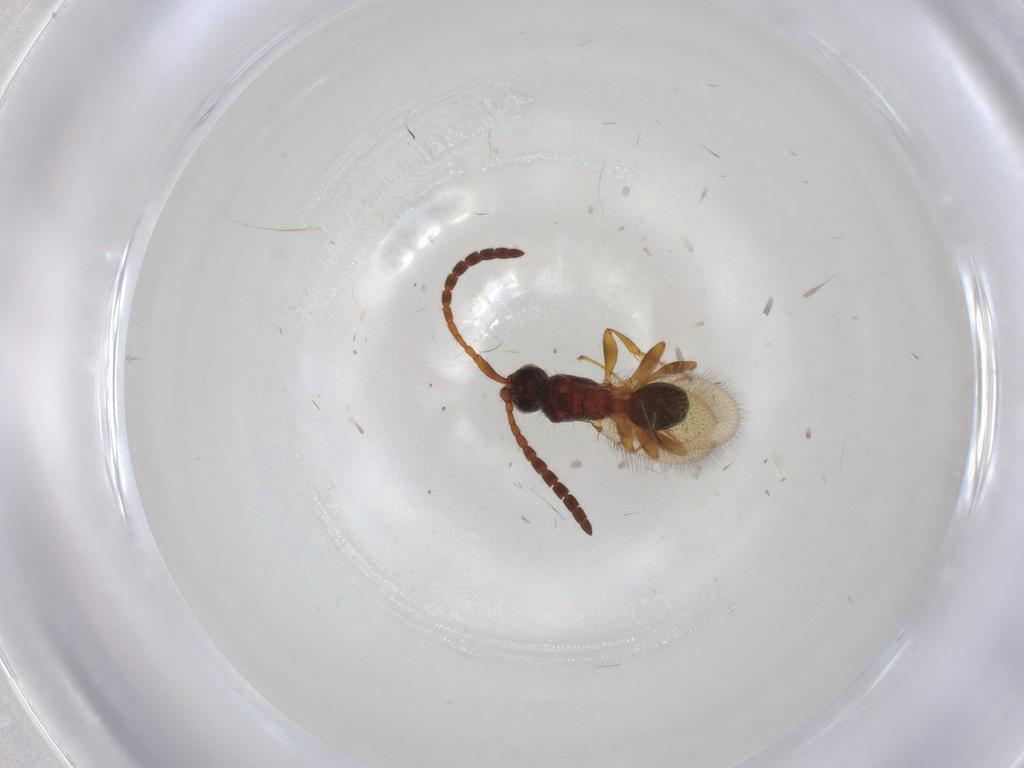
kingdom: Animalia
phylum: Arthropoda
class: Insecta
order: Hymenoptera
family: Diapriidae
